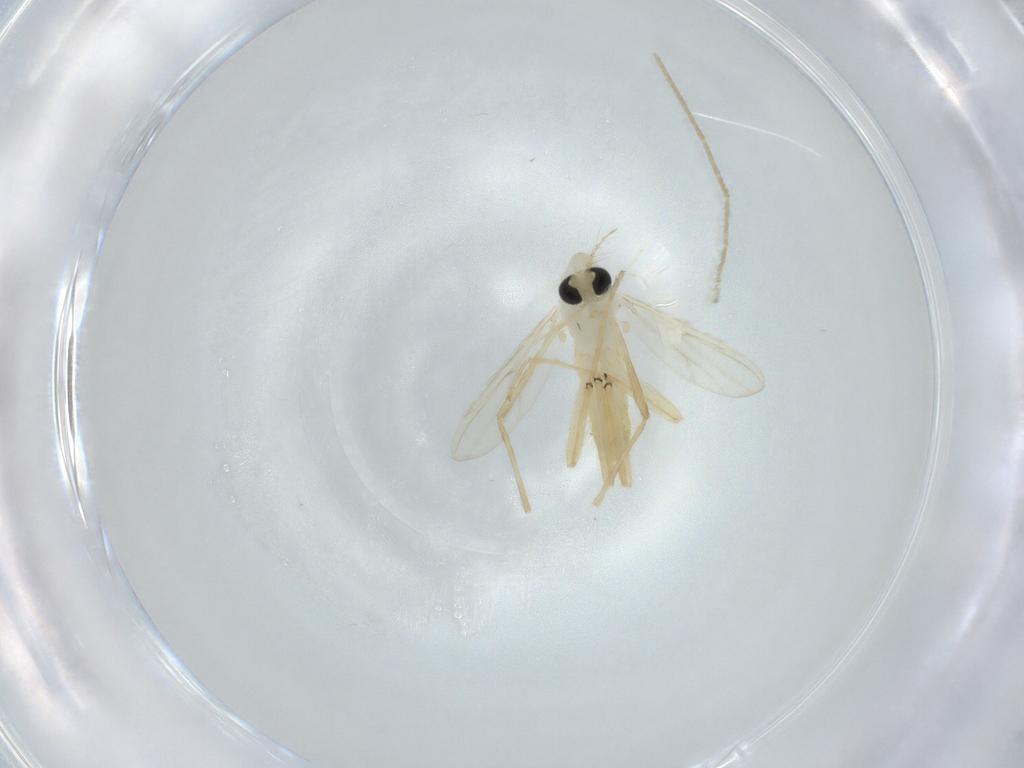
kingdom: Animalia
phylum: Arthropoda
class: Insecta
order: Diptera
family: Chironomidae
